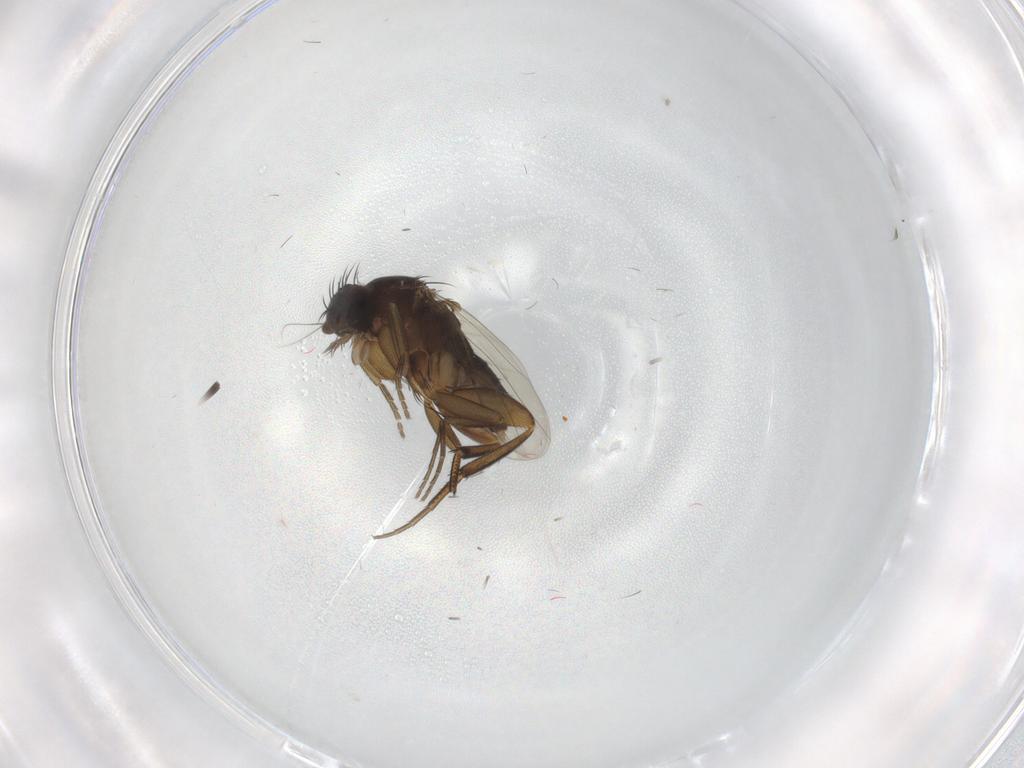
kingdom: Animalia
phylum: Arthropoda
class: Insecta
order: Diptera
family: Phoridae
